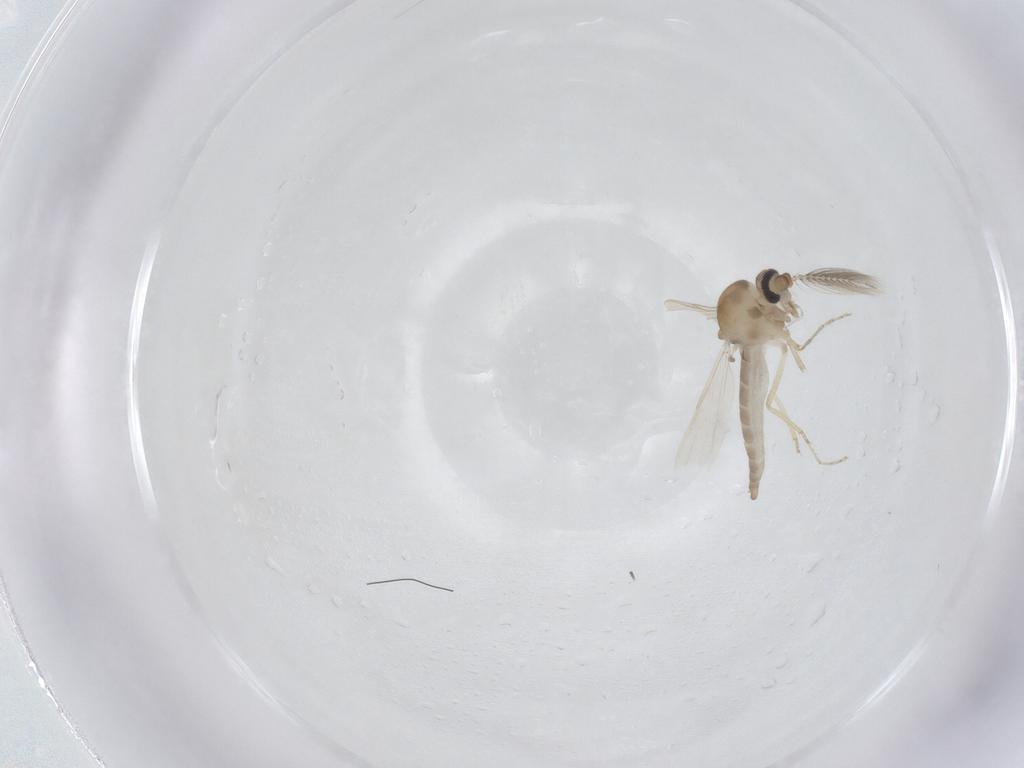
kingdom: Animalia
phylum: Arthropoda
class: Insecta
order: Diptera
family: Ceratopogonidae
